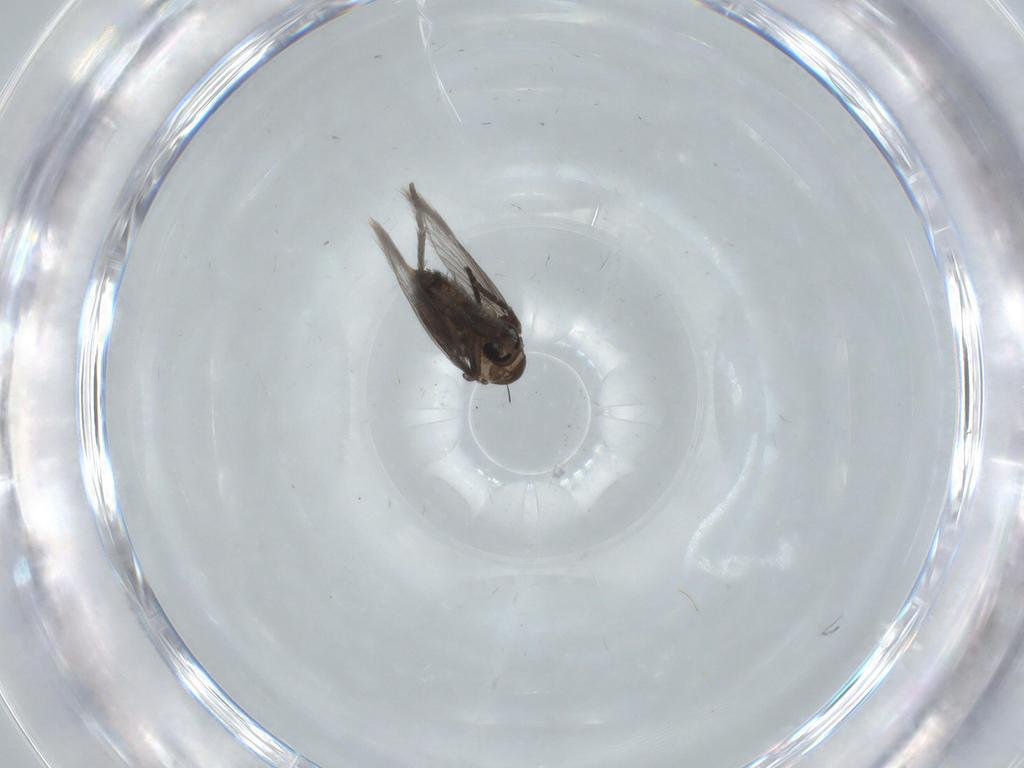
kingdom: Animalia
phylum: Arthropoda
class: Insecta
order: Diptera
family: Psychodidae
